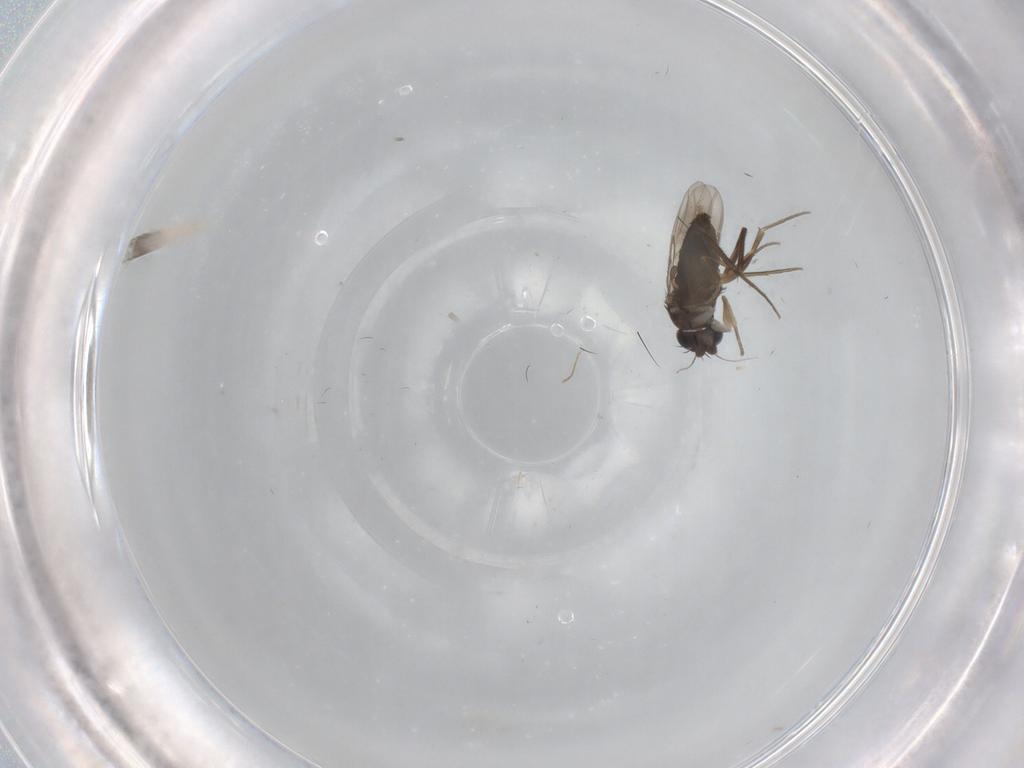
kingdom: Animalia
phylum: Arthropoda
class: Insecta
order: Diptera
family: Phoridae
